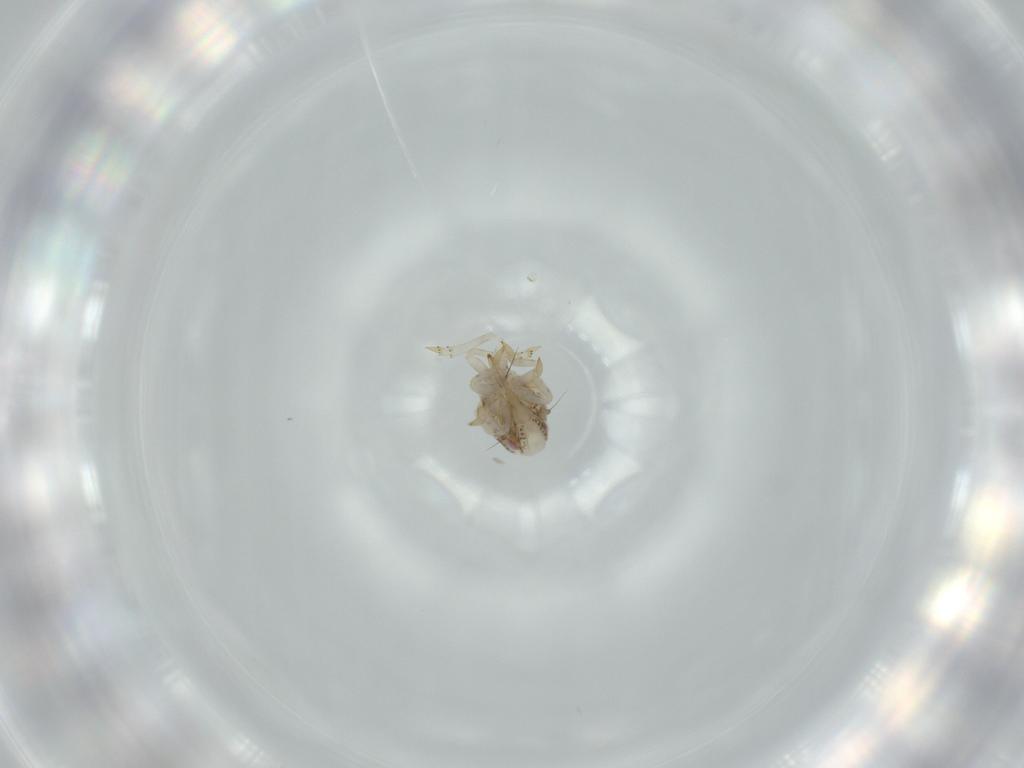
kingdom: Animalia
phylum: Arthropoda
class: Insecta
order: Hemiptera
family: Acanaloniidae
